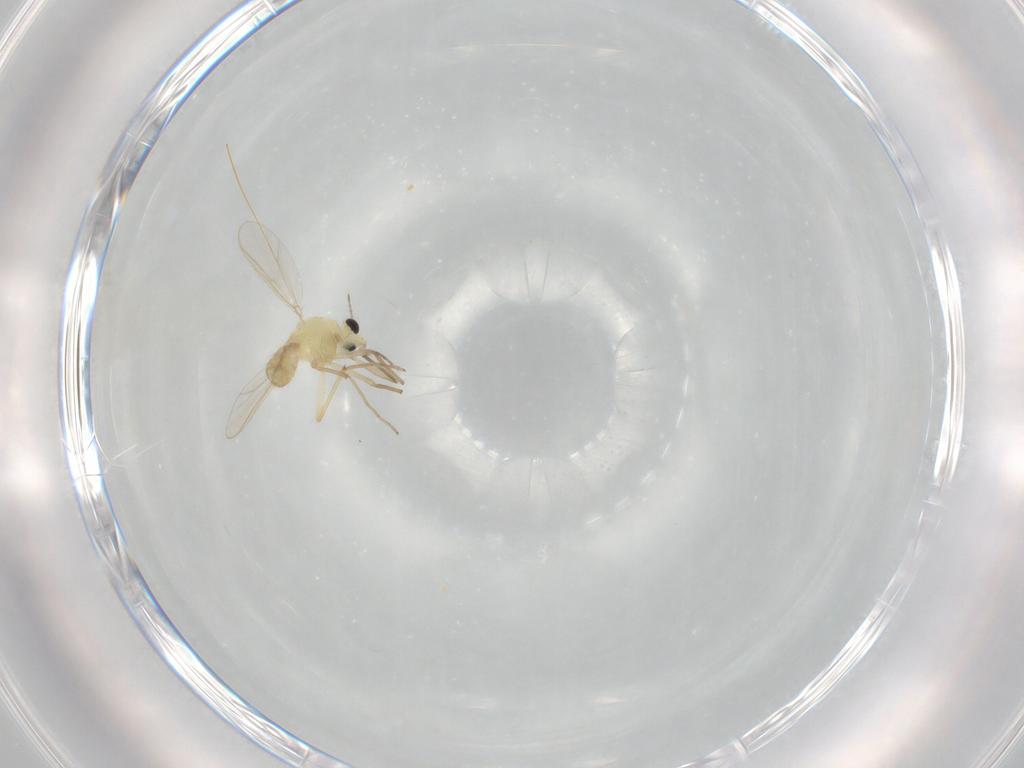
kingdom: Animalia
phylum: Arthropoda
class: Insecta
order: Diptera
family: Chironomidae
